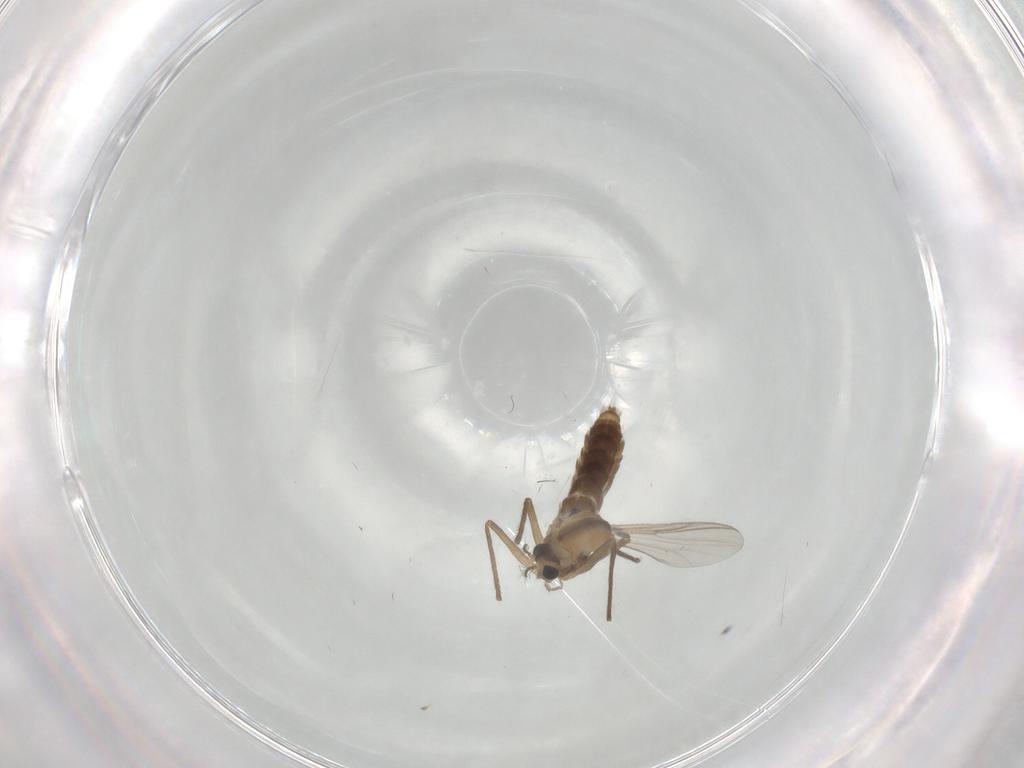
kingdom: Animalia
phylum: Arthropoda
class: Insecta
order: Diptera
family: Chironomidae
